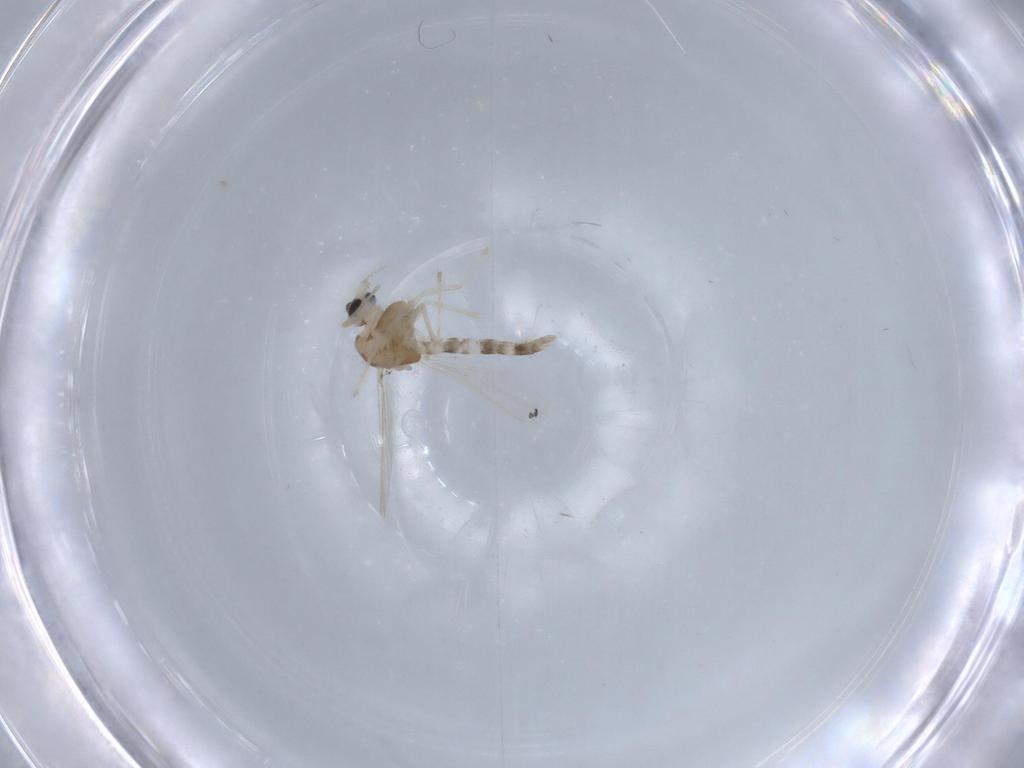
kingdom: Animalia
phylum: Arthropoda
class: Insecta
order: Diptera
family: Chironomidae
